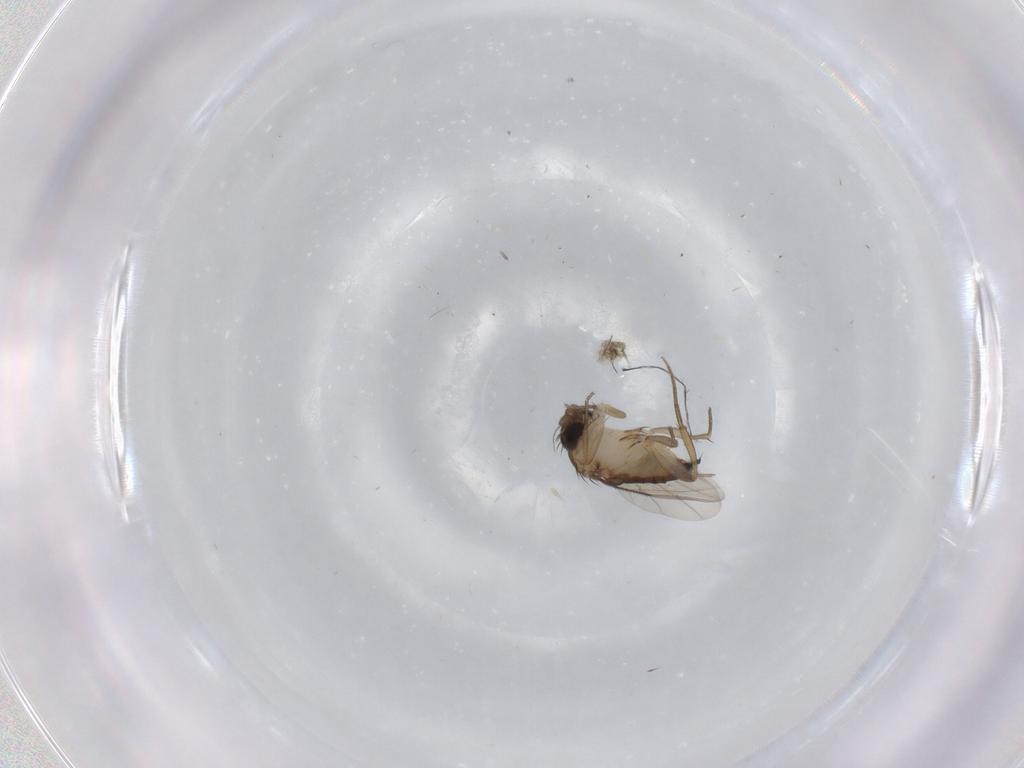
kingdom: Animalia
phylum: Arthropoda
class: Insecta
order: Diptera
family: Phoridae
